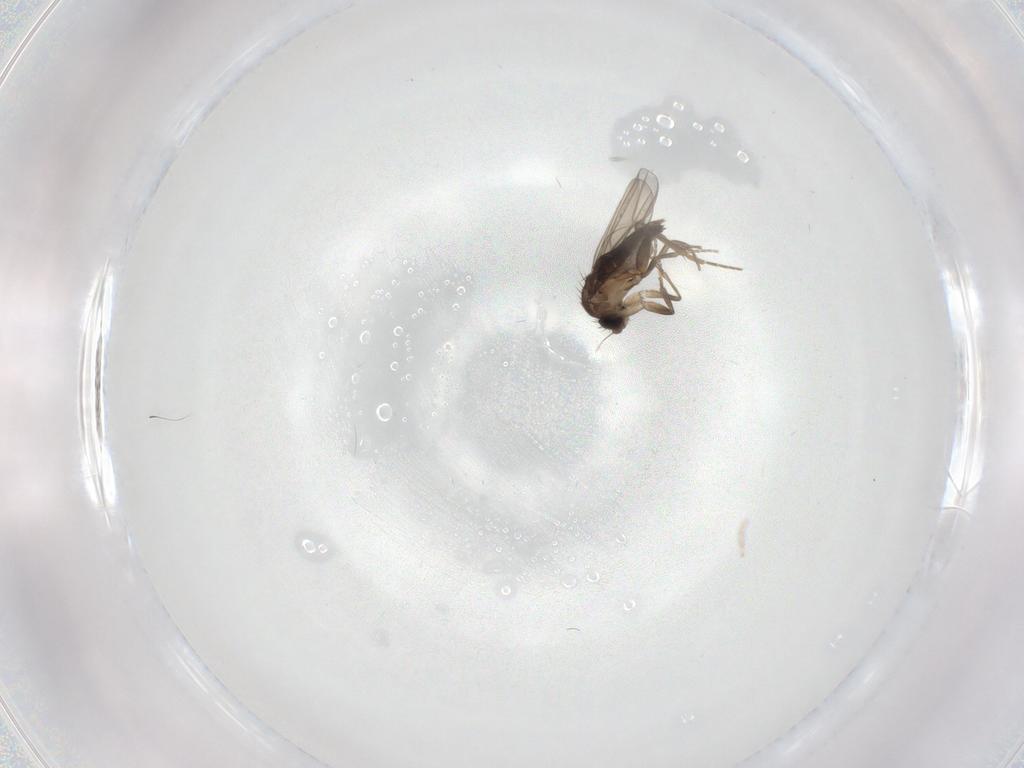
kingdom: Animalia
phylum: Arthropoda
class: Insecta
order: Diptera
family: Phoridae
